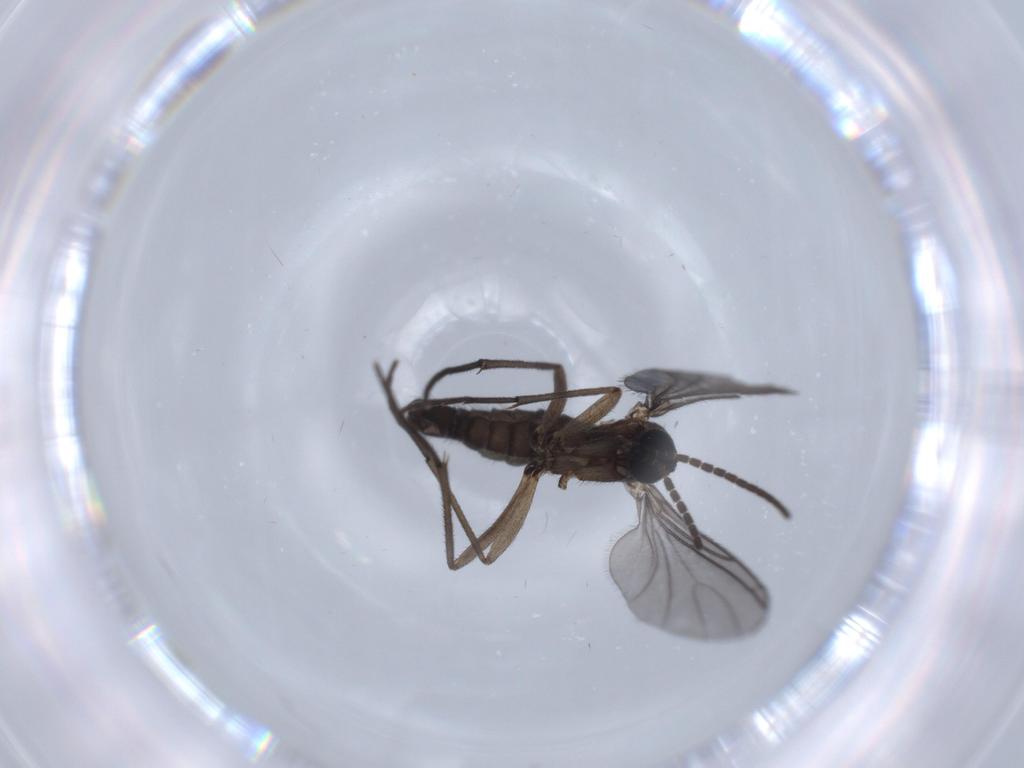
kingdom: Animalia
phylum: Arthropoda
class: Insecta
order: Diptera
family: Sciaridae
